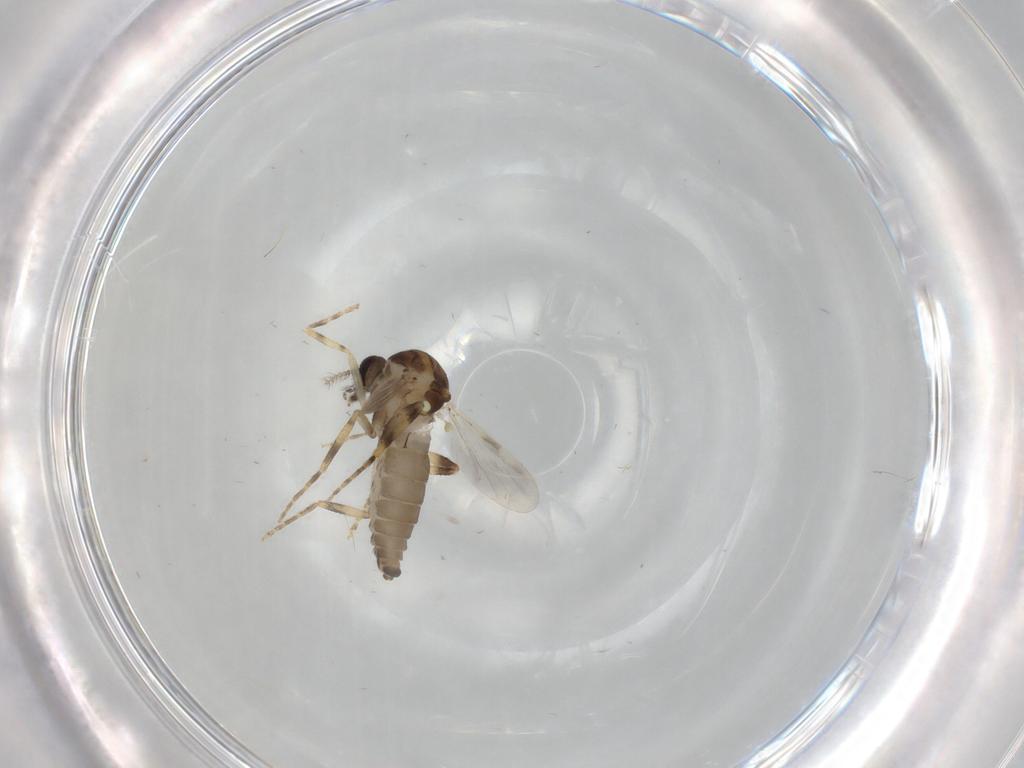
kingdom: Animalia
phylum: Arthropoda
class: Insecta
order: Diptera
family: Ceratopogonidae
